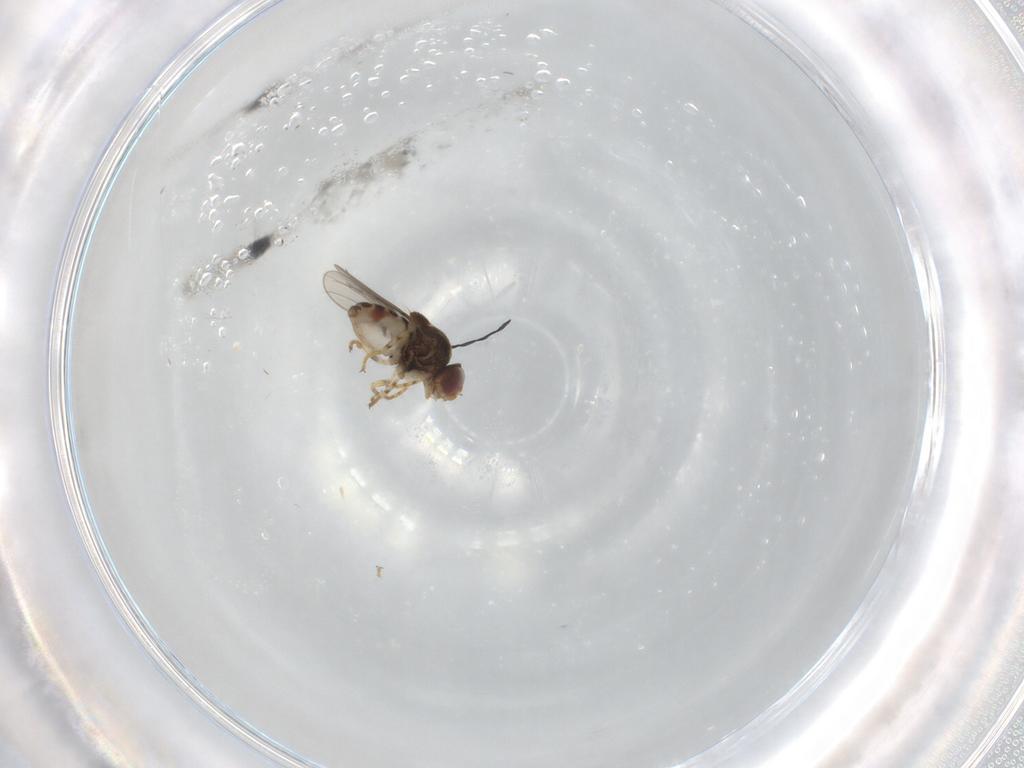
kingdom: Animalia
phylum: Arthropoda
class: Insecta
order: Diptera
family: Chloropidae
